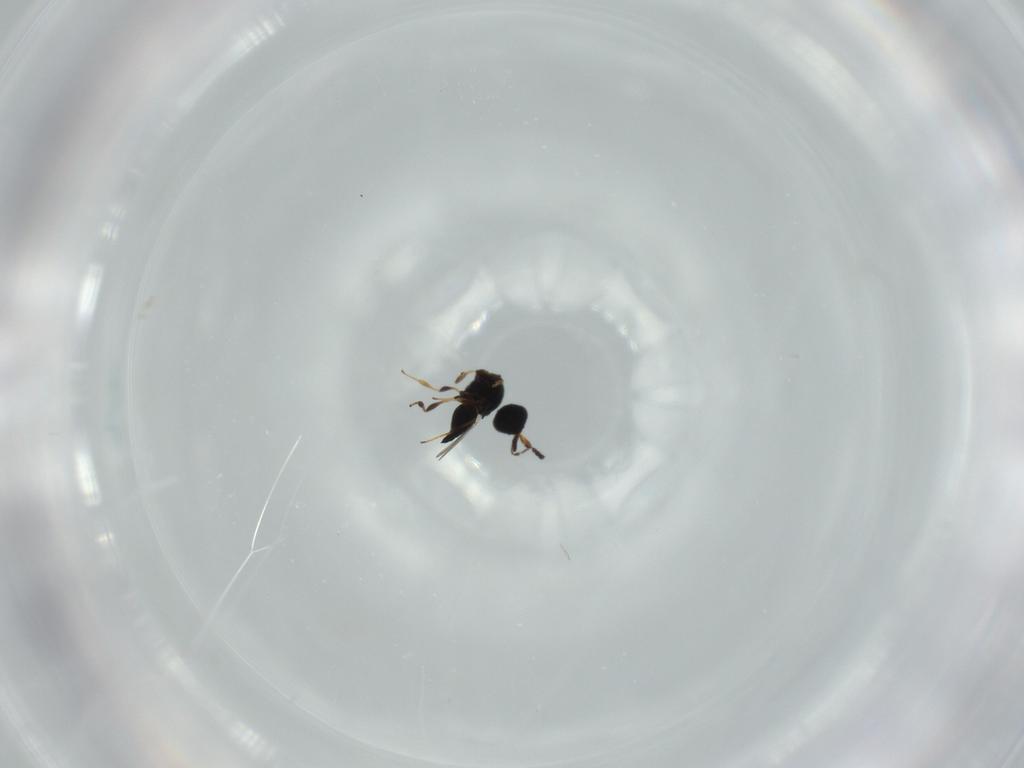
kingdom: Animalia
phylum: Arthropoda
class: Insecta
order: Hymenoptera
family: Platygastridae
